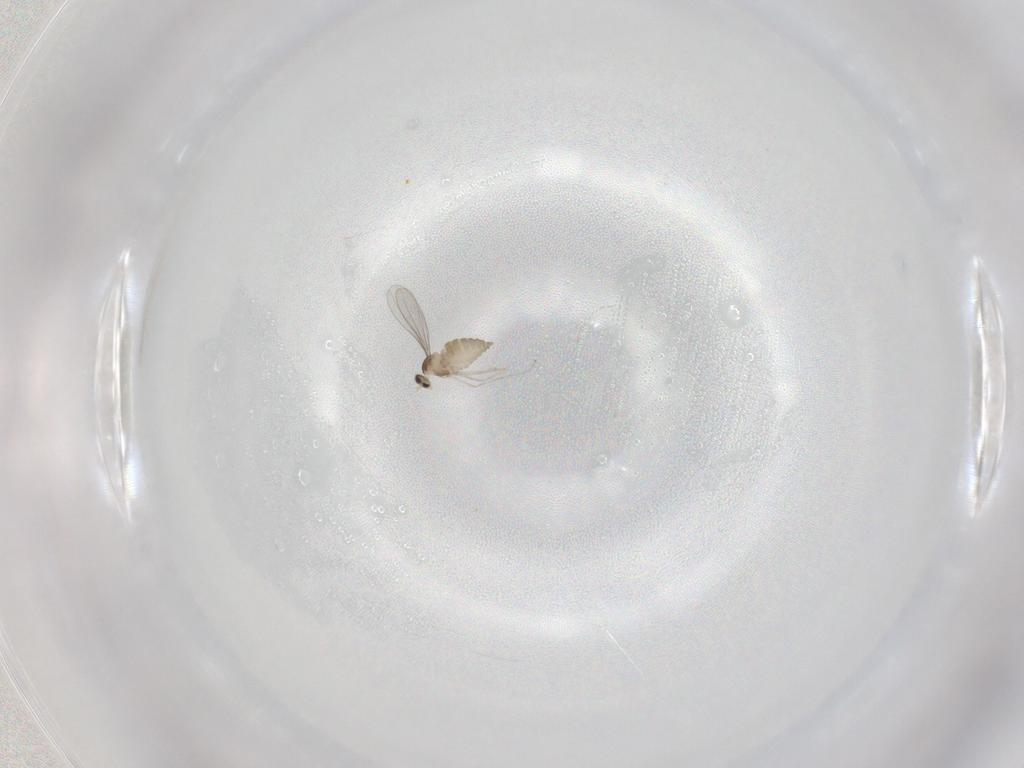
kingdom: Animalia
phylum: Arthropoda
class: Insecta
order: Diptera
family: Cecidomyiidae
